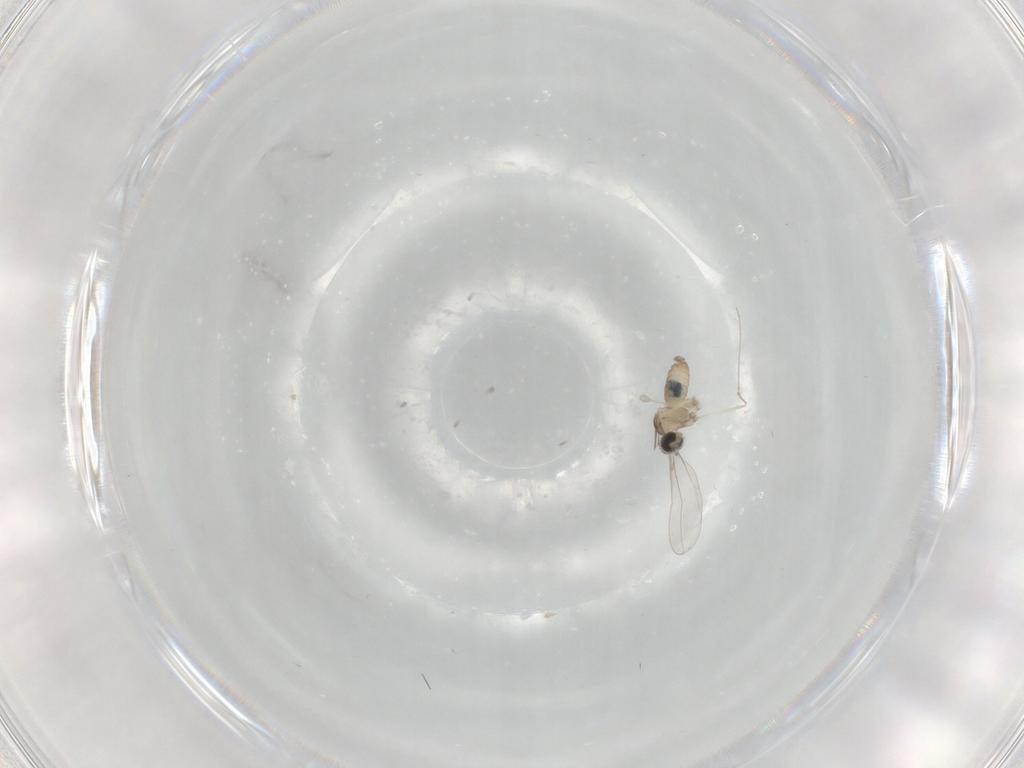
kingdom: Animalia
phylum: Arthropoda
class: Insecta
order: Diptera
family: Cecidomyiidae
